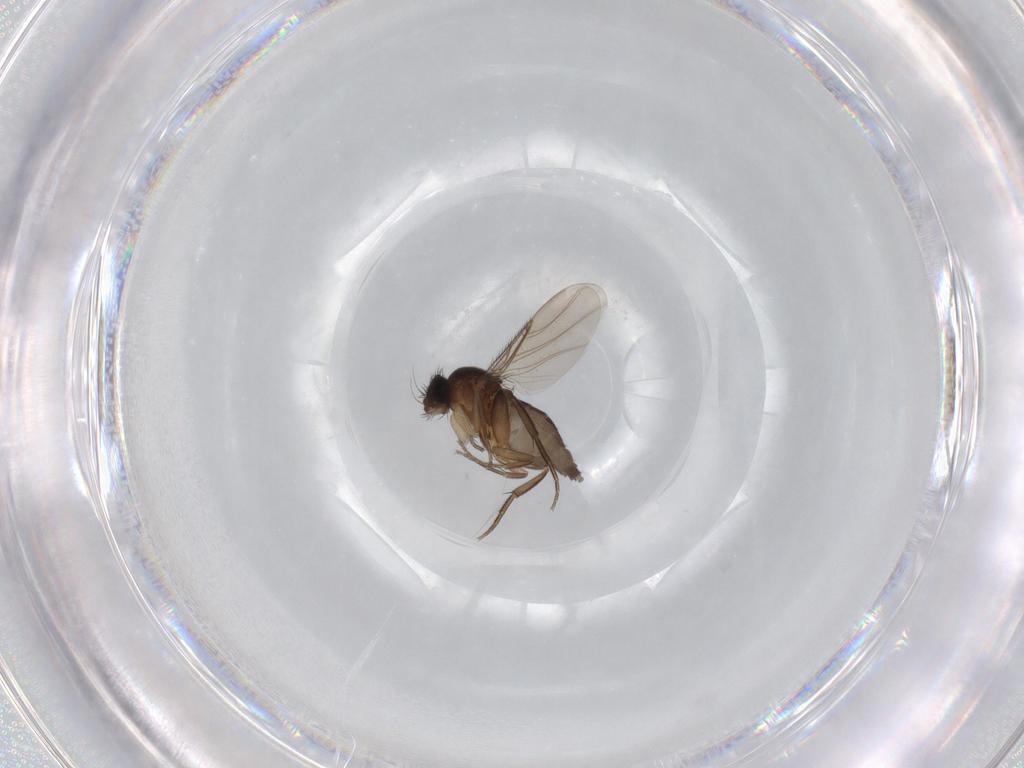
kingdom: Animalia
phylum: Arthropoda
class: Insecta
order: Diptera
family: Phoridae
